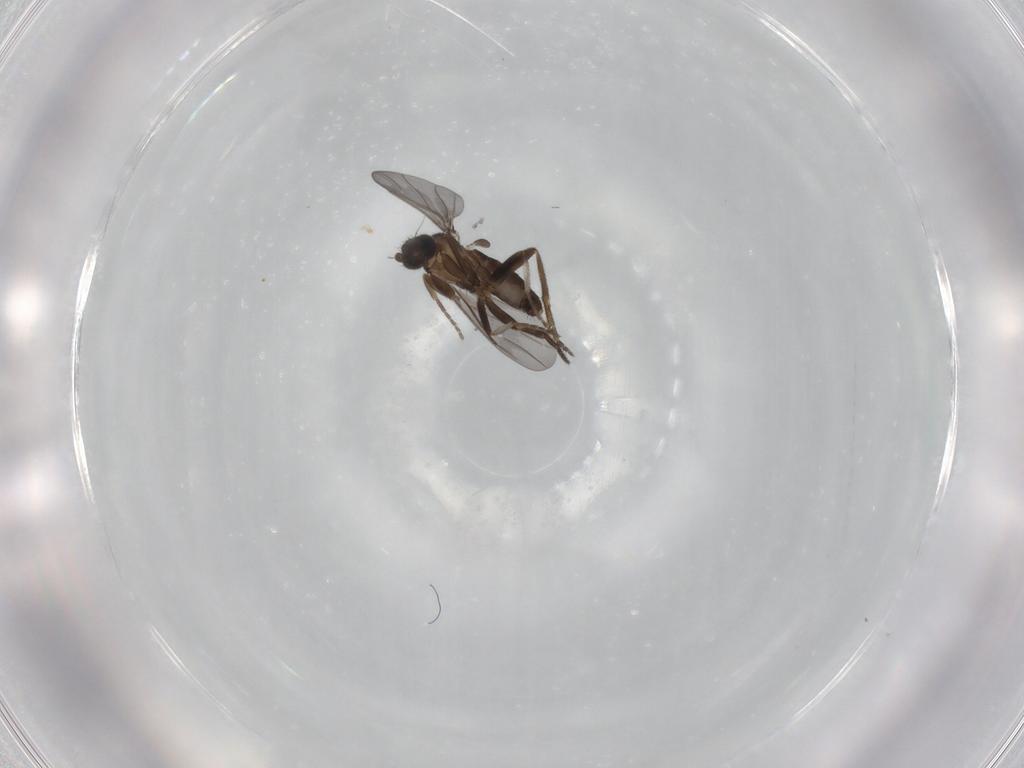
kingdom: Animalia
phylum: Arthropoda
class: Insecta
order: Diptera
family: Phoridae
